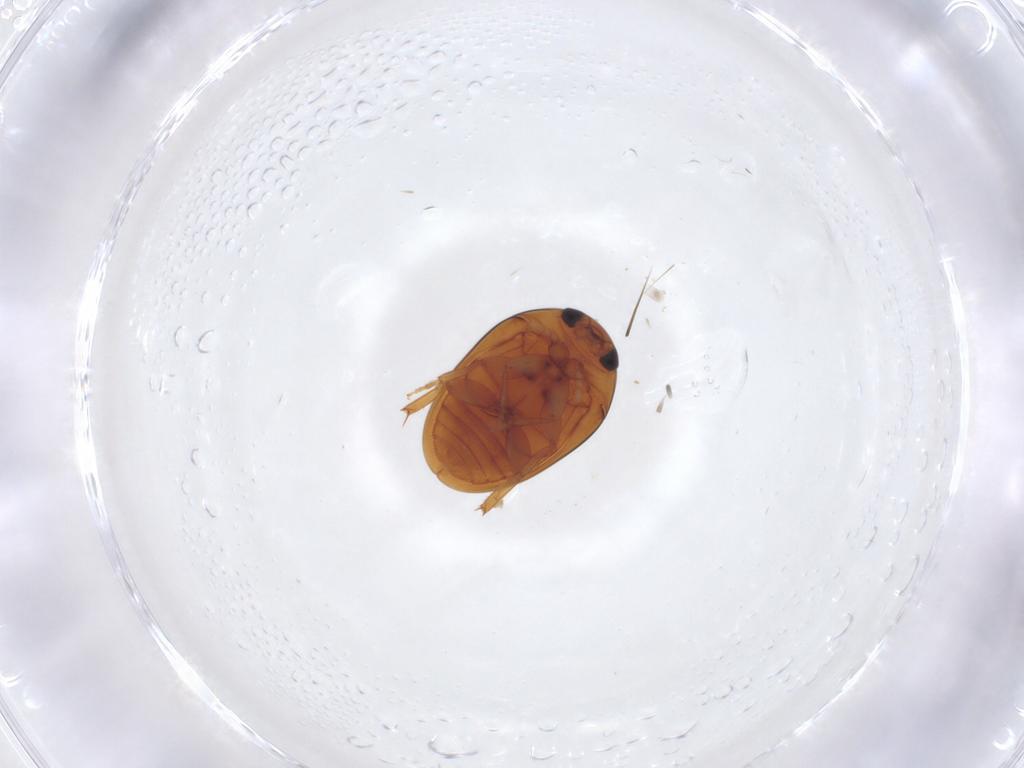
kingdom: Animalia
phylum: Arthropoda
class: Insecta
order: Coleoptera
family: Phalacridae
